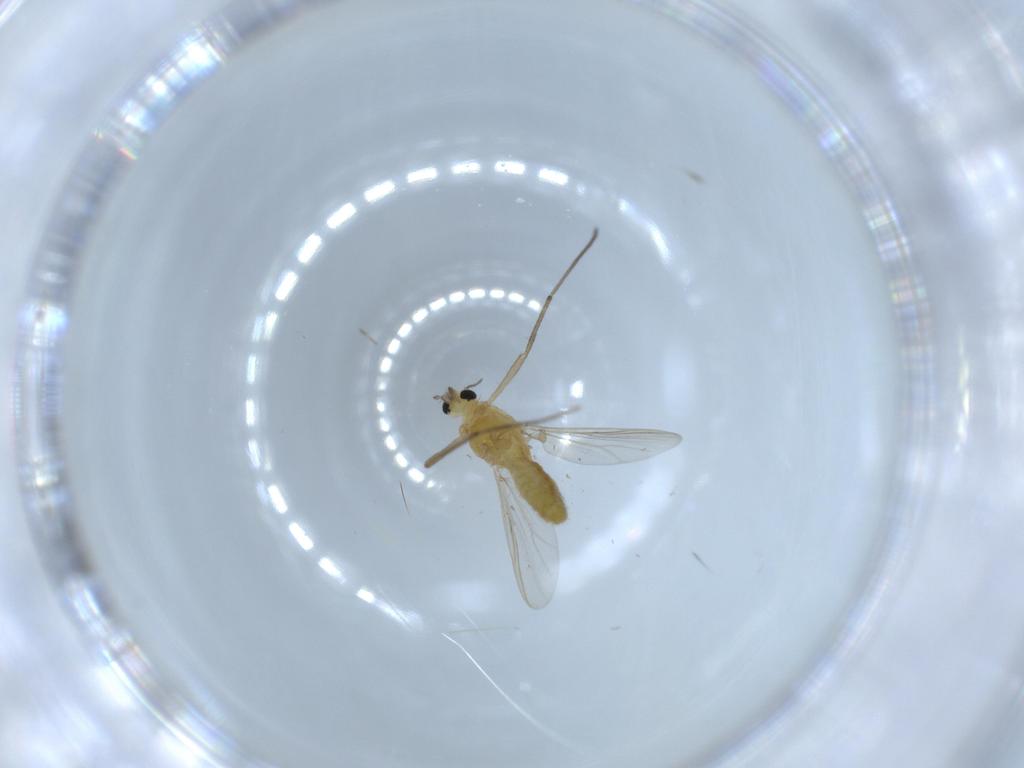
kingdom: Animalia
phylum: Arthropoda
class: Insecta
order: Diptera
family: Chironomidae
